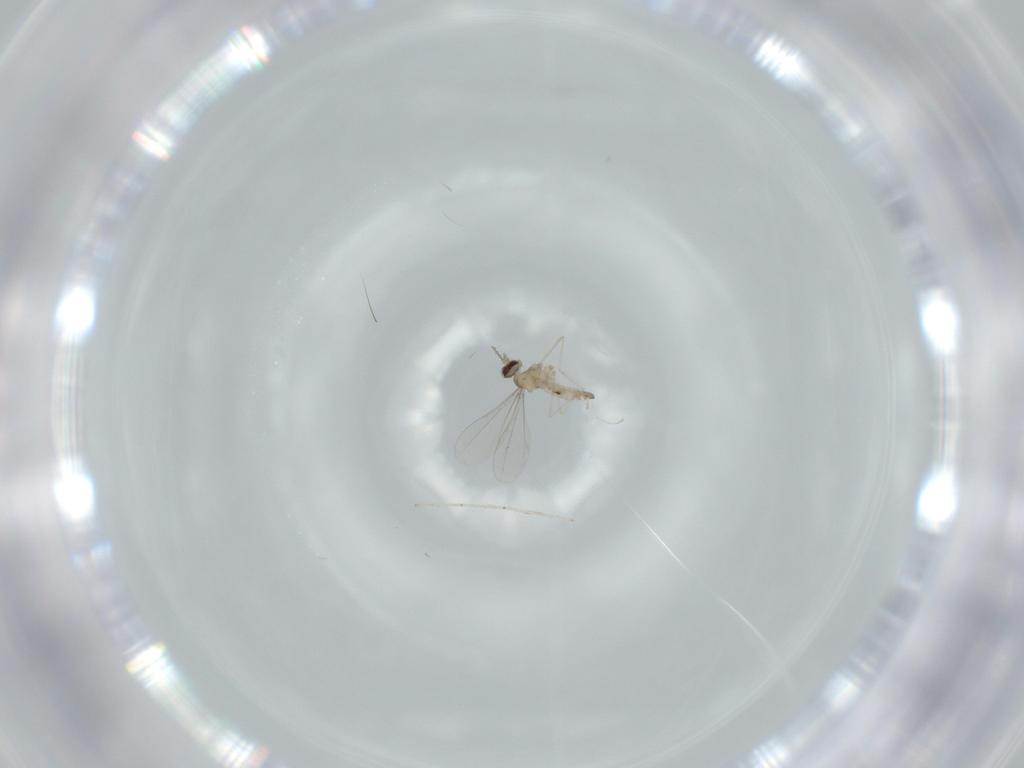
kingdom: Animalia
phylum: Arthropoda
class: Insecta
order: Diptera
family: Cecidomyiidae
